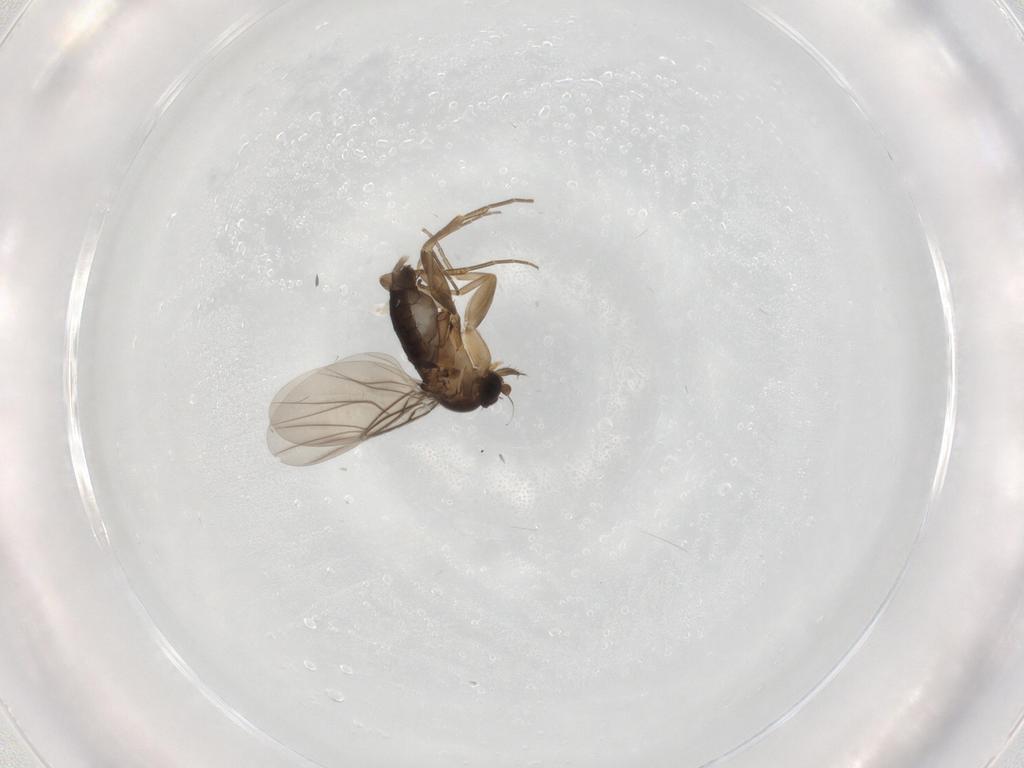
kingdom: Animalia
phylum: Arthropoda
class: Insecta
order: Diptera
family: Phoridae
